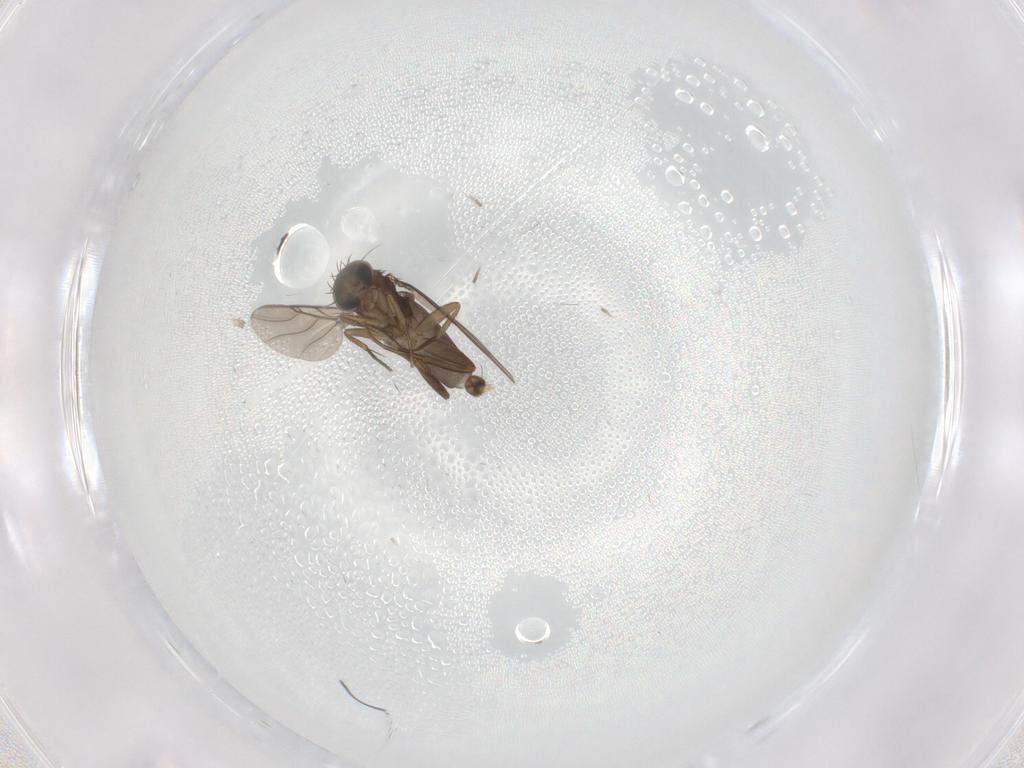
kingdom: Animalia
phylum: Arthropoda
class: Insecta
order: Diptera
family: Phoridae
